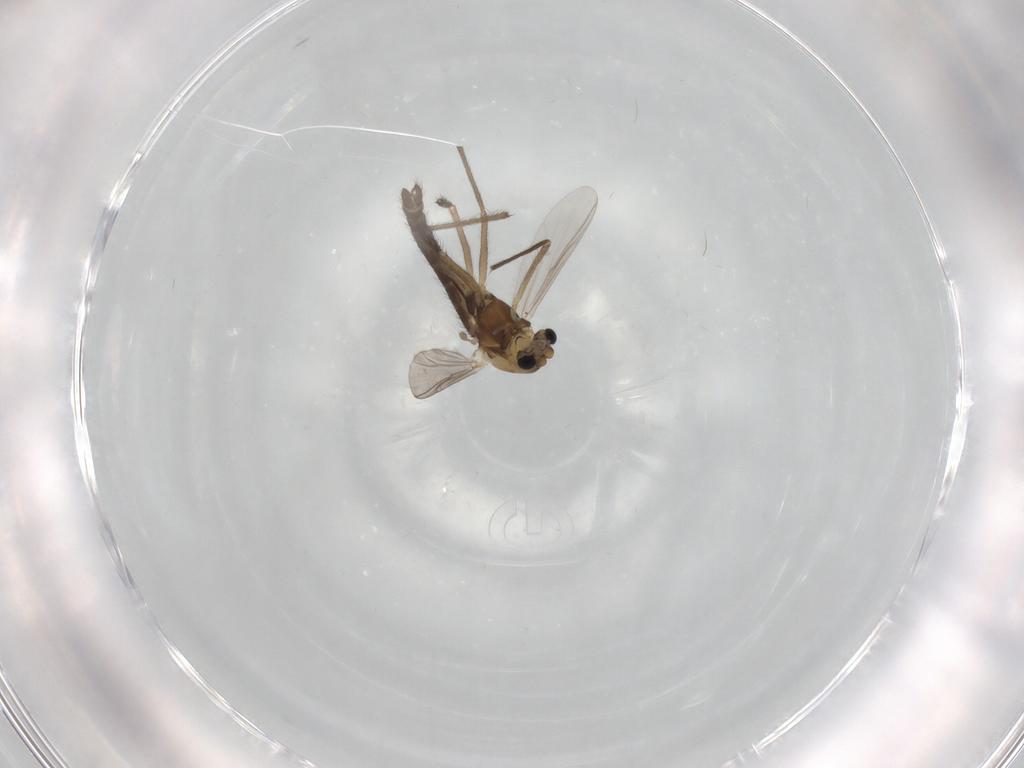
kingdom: Animalia
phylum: Arthropoda
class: Insecta
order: Diptera
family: Chironomidae
